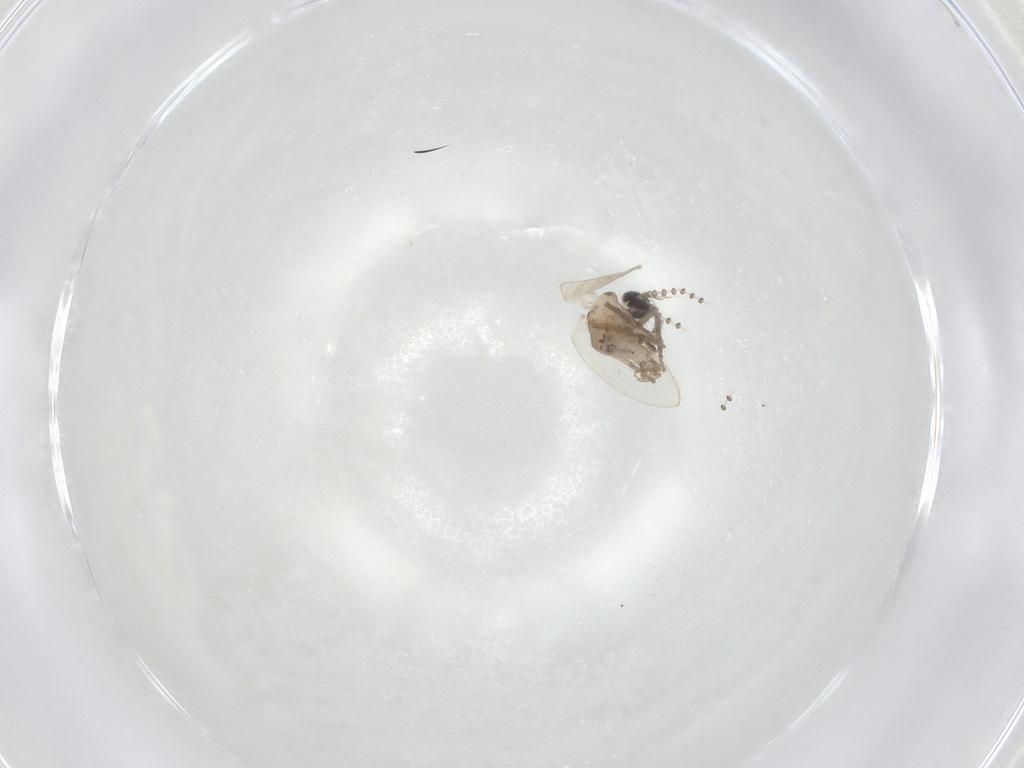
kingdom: Animalia
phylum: Arthropoda
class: Insecta
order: Diptera
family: Psychodidae
